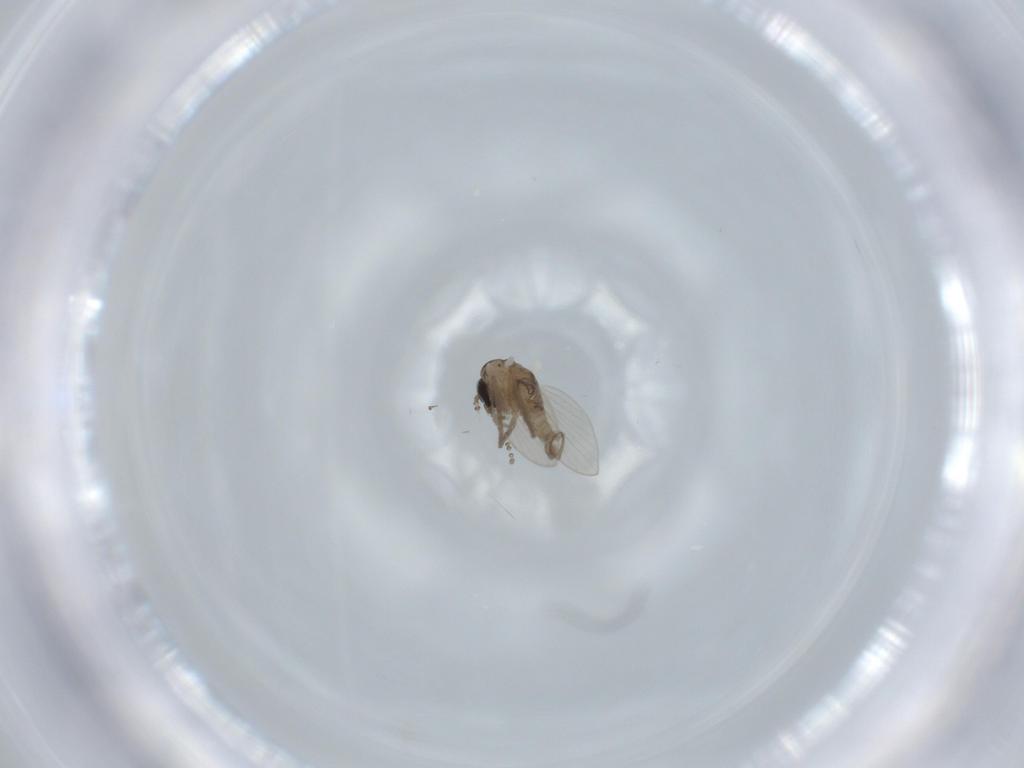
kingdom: Animalia
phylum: Arthropoda
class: Insecta
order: Diptera
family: Psychodidae
